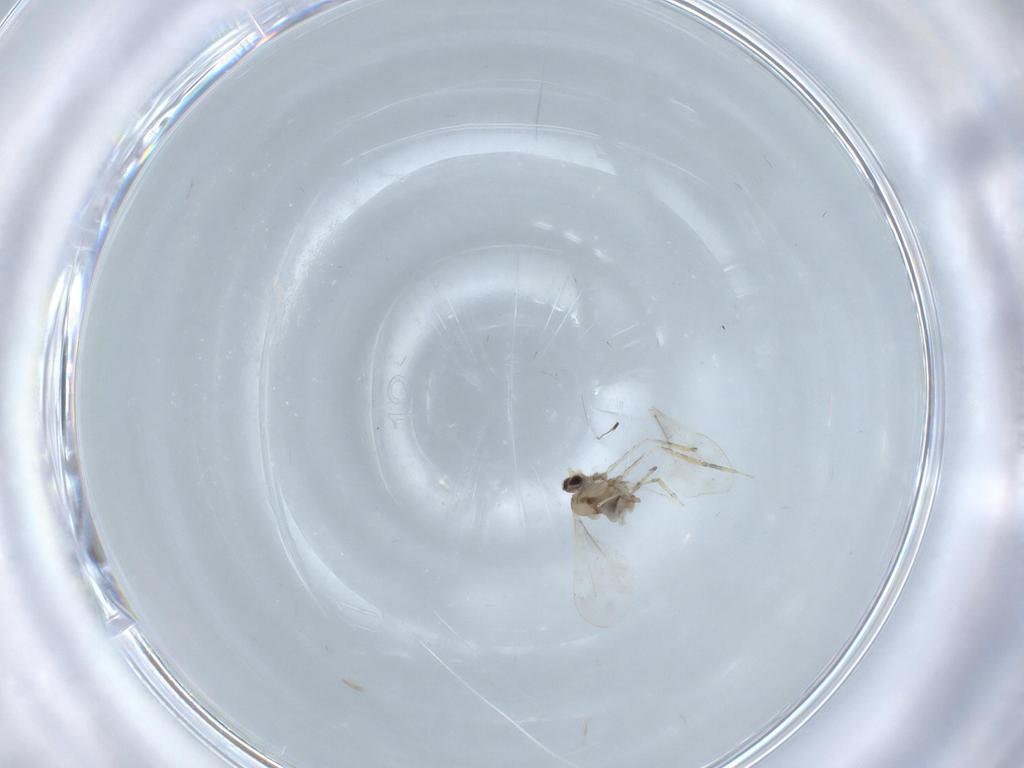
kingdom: Animalia
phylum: Arthropoda
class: Insecta
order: Diptera
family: Cecidomyiidae
